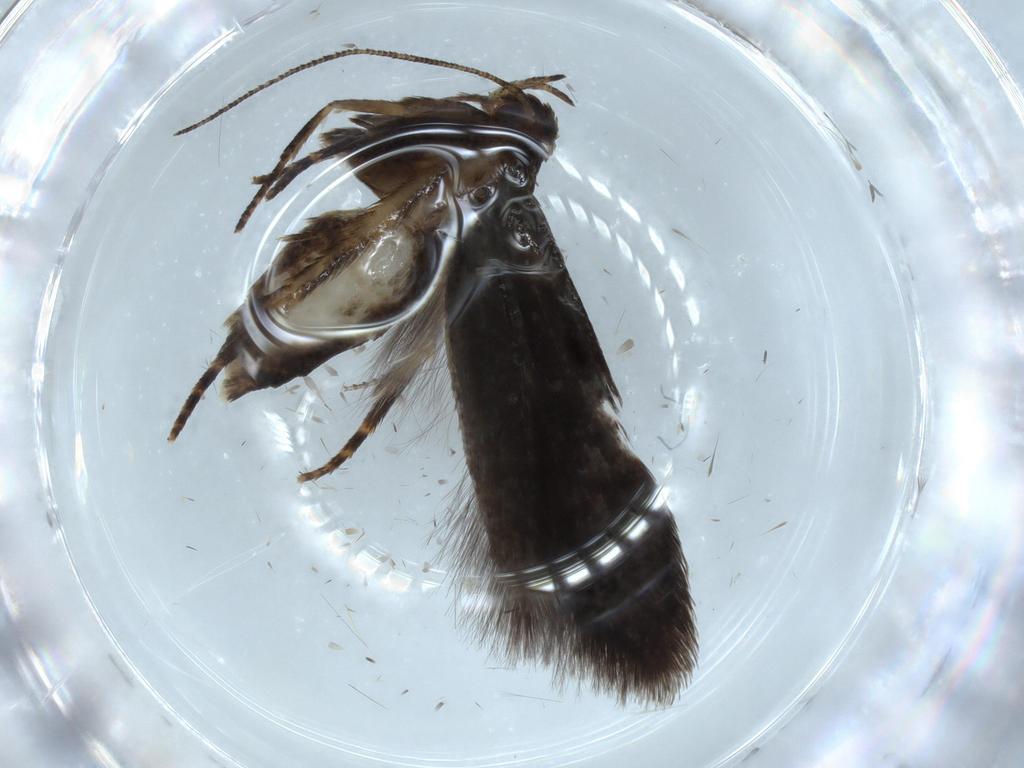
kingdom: Animalia
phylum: Arthropoda
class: Insecta
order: Lepidoptera
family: Cosmopterigidae
